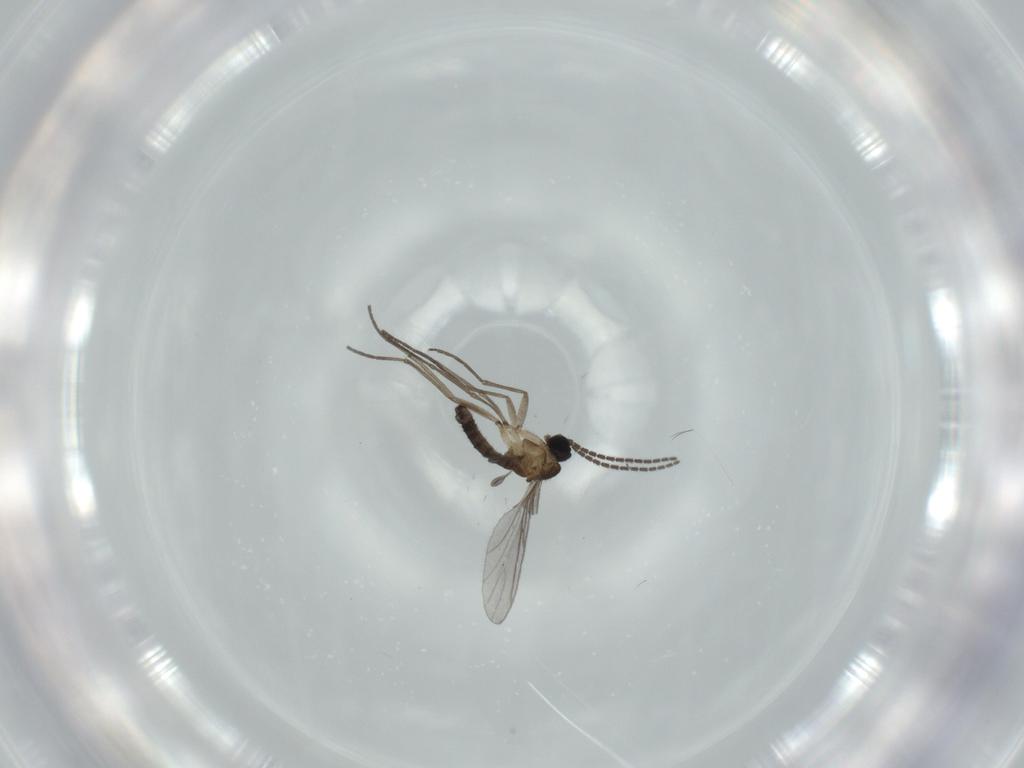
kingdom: Animalia
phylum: Arthropoda
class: Insecta
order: Diptera
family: Sciaridae
